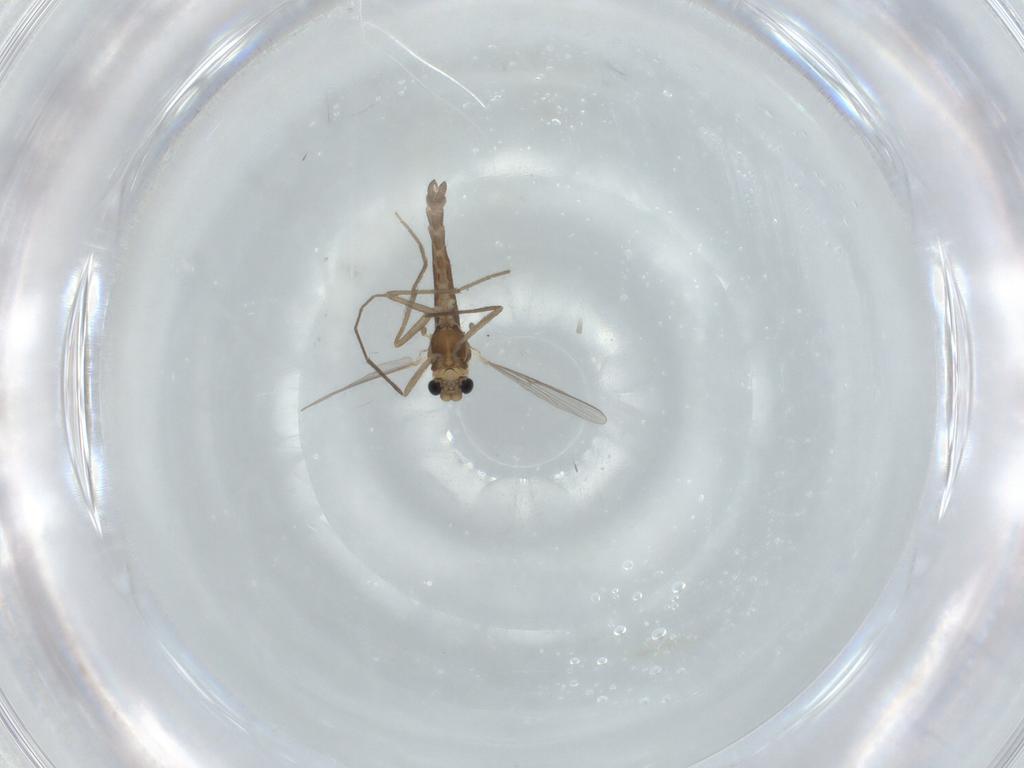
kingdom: Animalia
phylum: Arthropoda
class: Insecta
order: Diptera
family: Chironomidae
